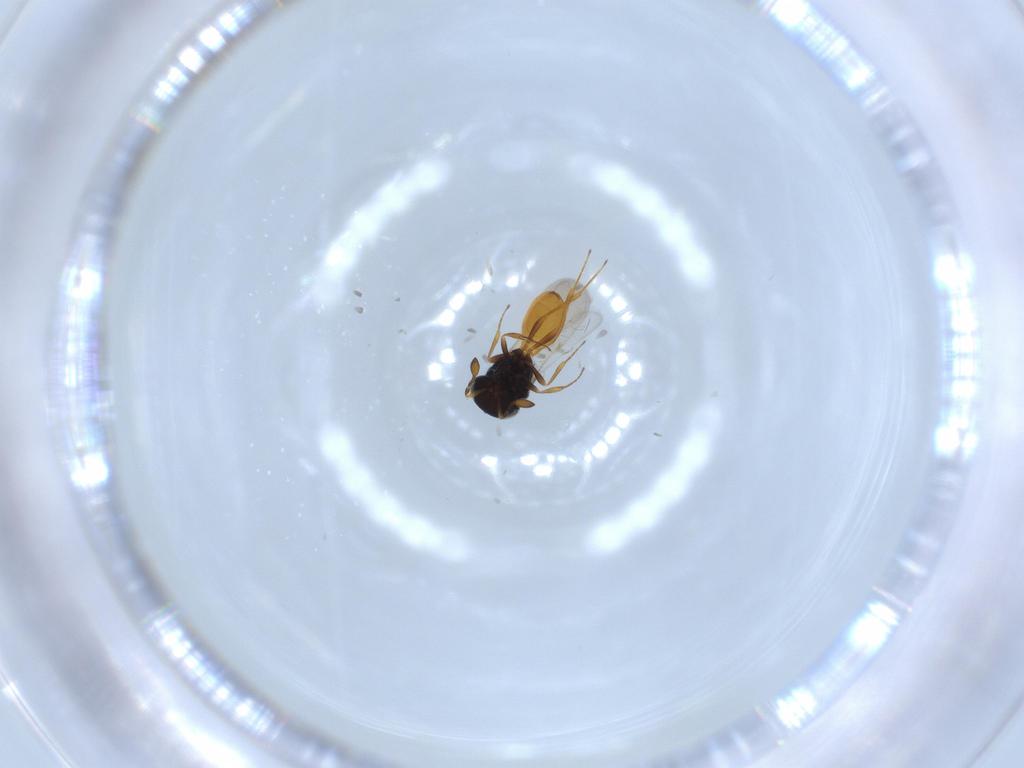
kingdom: Animalia
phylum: Arthropoda
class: Insecta
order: Hymenoptera
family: Scelionidae
